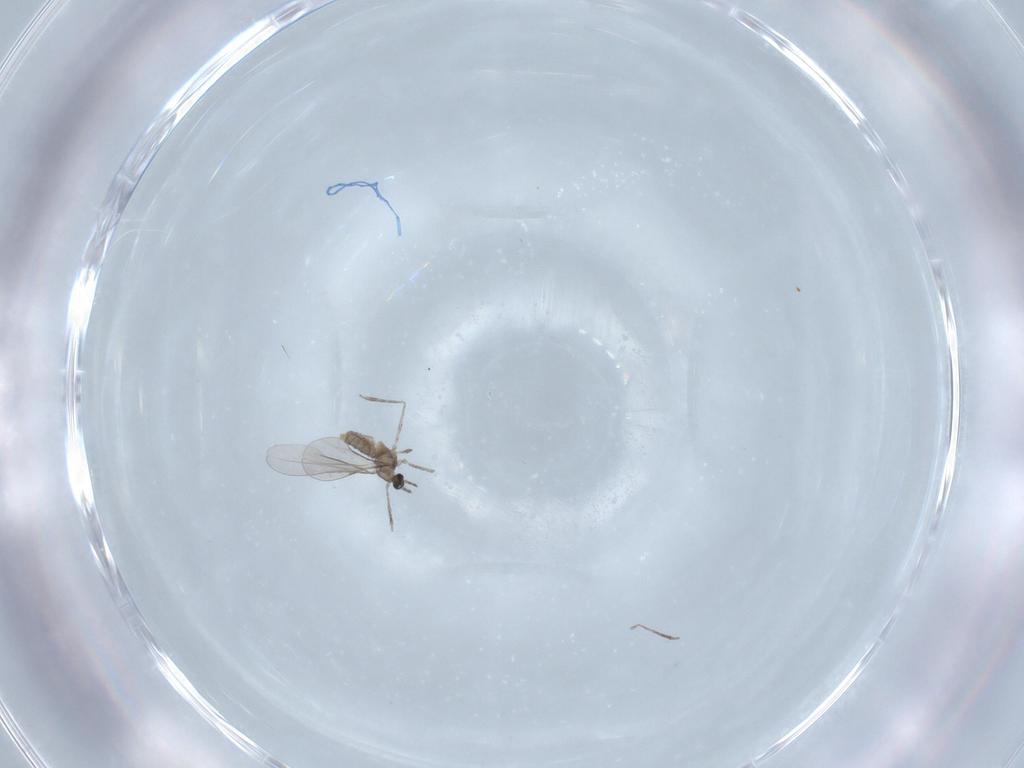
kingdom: Animalia
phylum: Arthropoda
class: Insecta
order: Diptera
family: Cecidomyiidae
